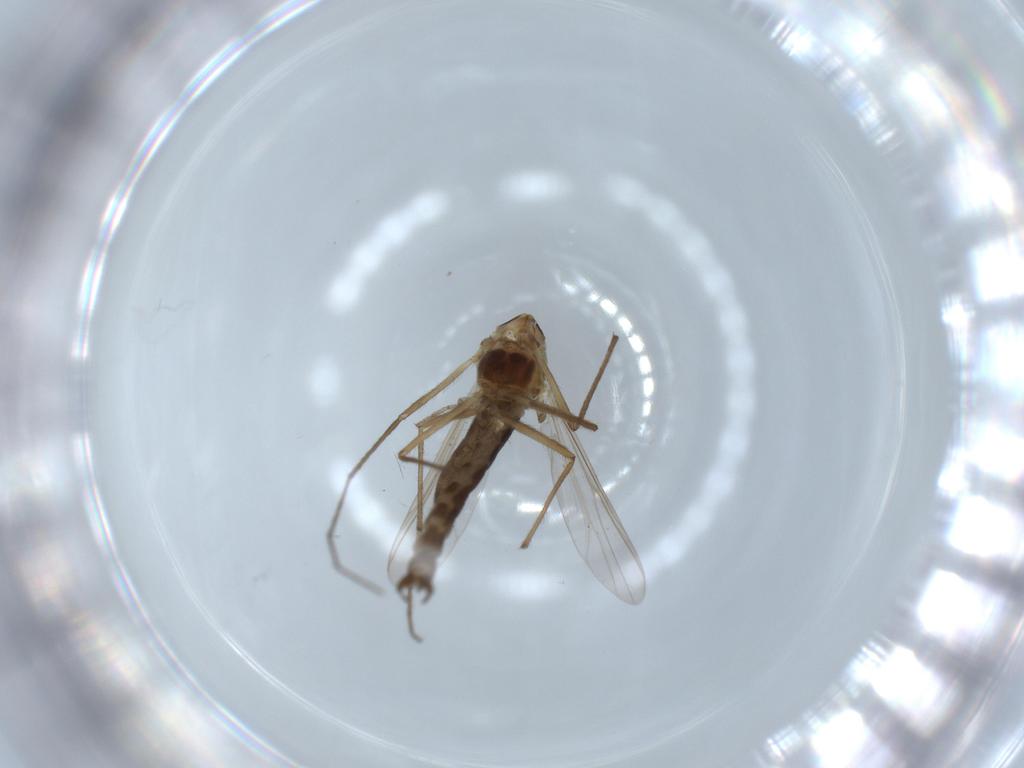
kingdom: Animalia
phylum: Arthropoda
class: Insecta
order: Diptera
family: Chironomidae
